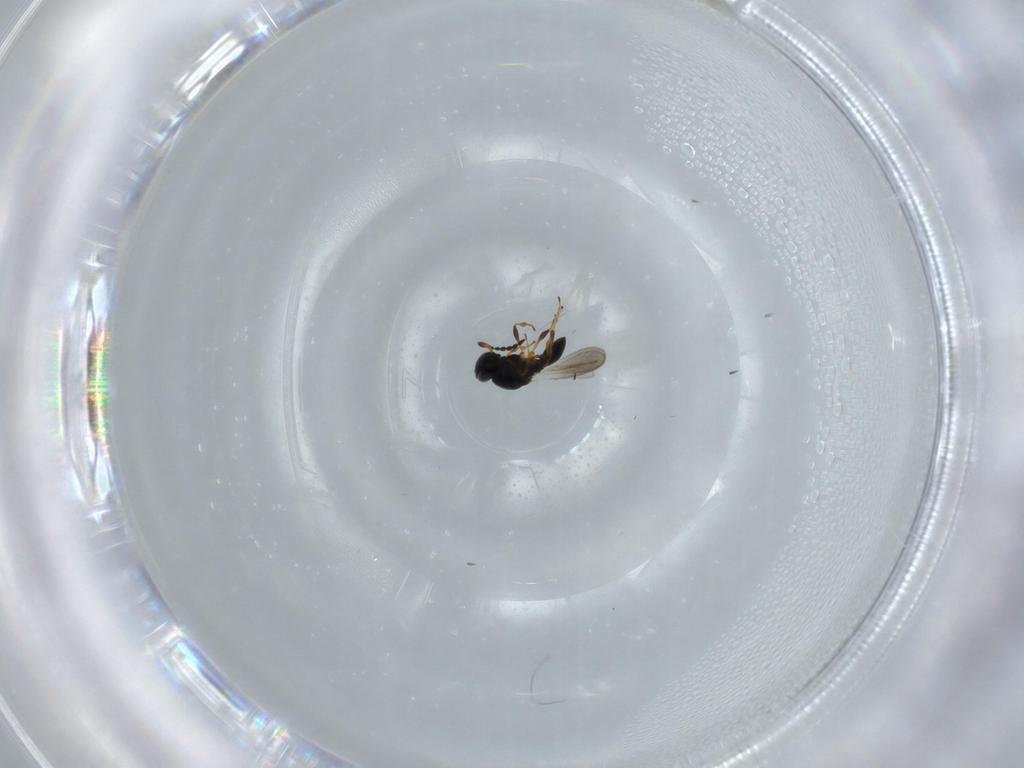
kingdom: Animalia
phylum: Arthropoda
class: Insecta
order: Hymenoptera
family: Platygastridae
